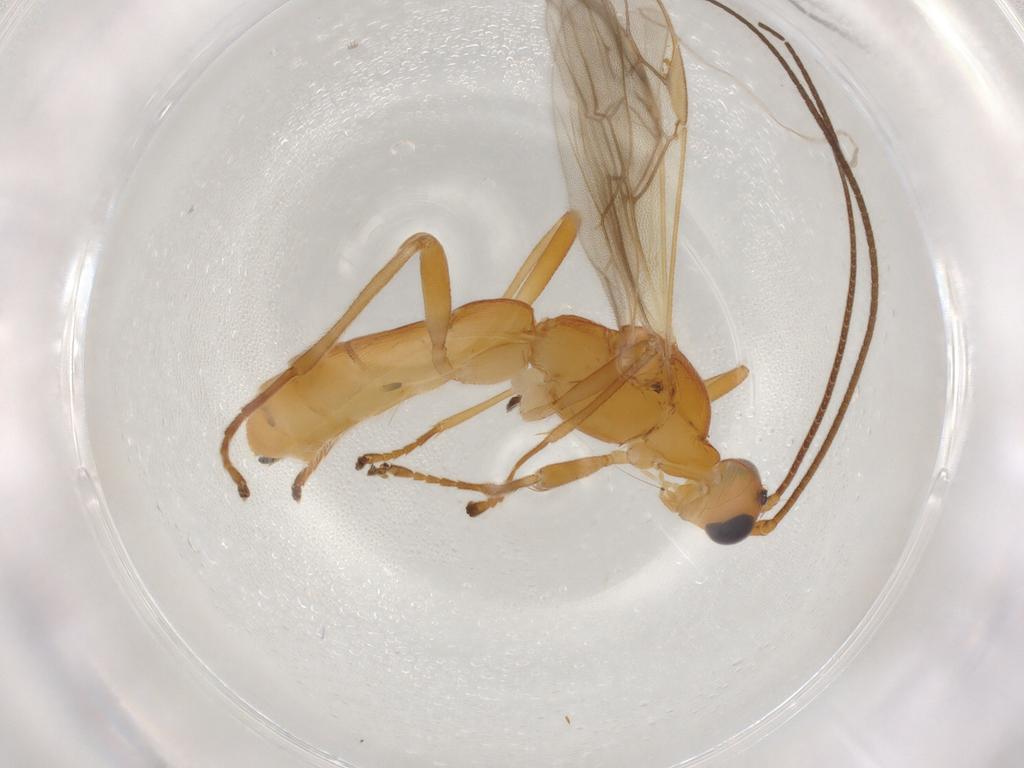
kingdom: Animalia
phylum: Arthropoda
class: Insecta
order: Hymenoptera
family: Braconidae
